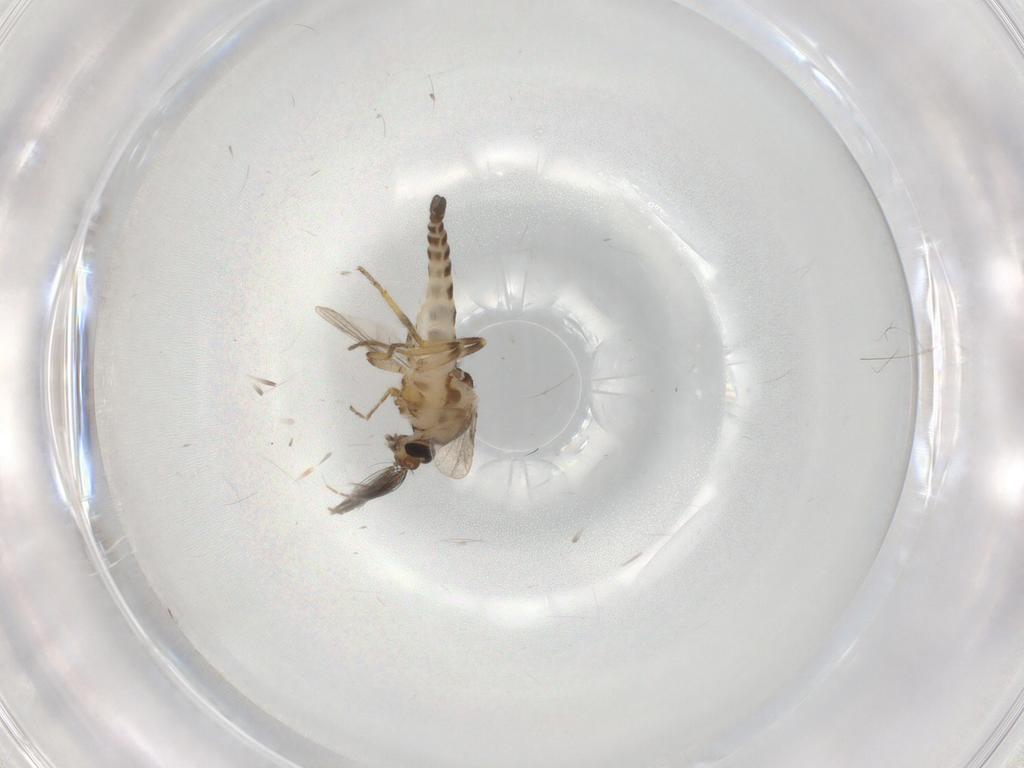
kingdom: Animalia
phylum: Arthropoda
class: Insecta
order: Diptera
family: Ceratopogonidae
